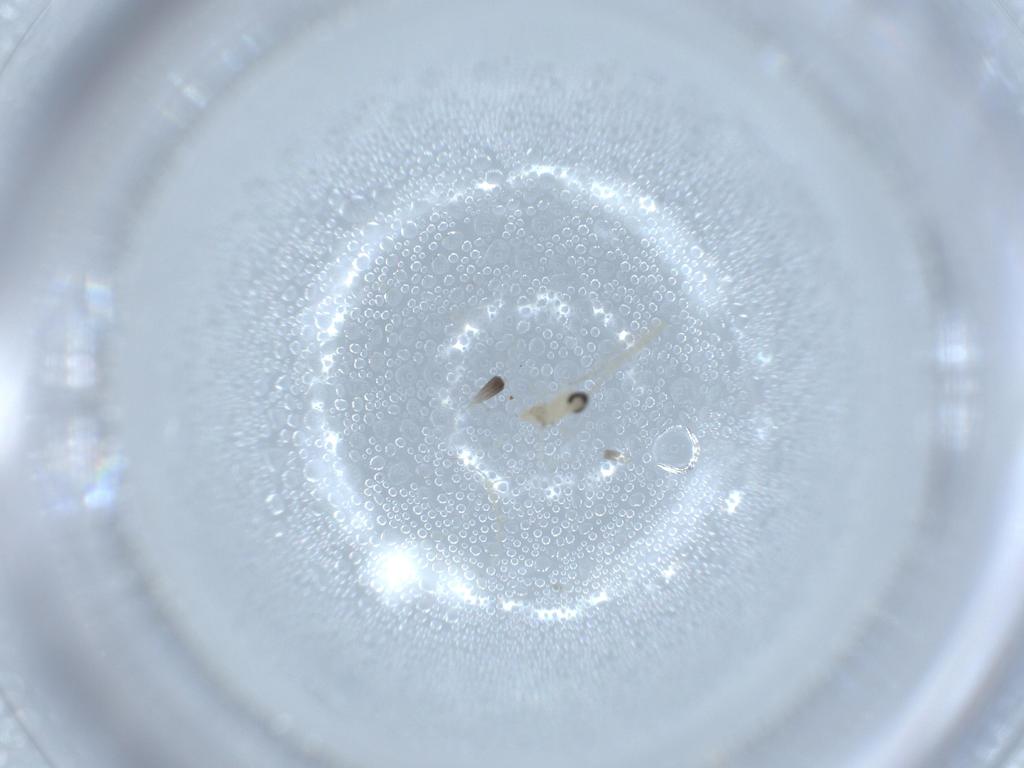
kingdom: Animalia
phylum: Arthropoda
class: Insecta
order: Diptera
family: Cecidomyiidae
